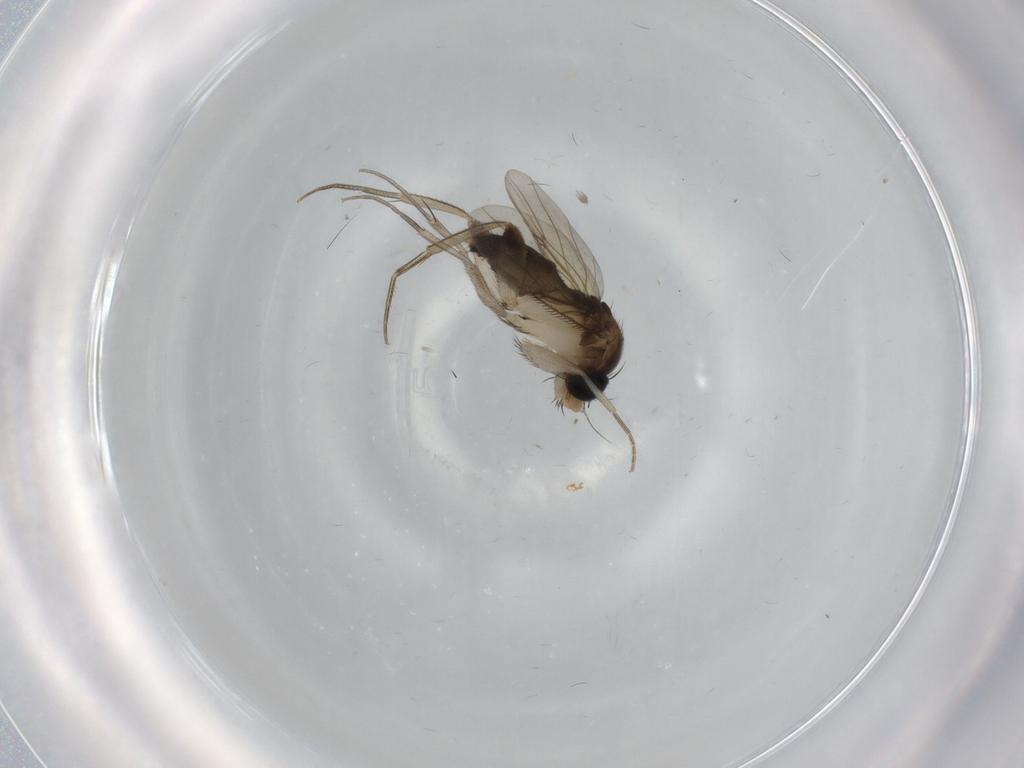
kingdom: Animalia
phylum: Arthropoda
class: Insecta
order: Diptera
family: Phoridae
